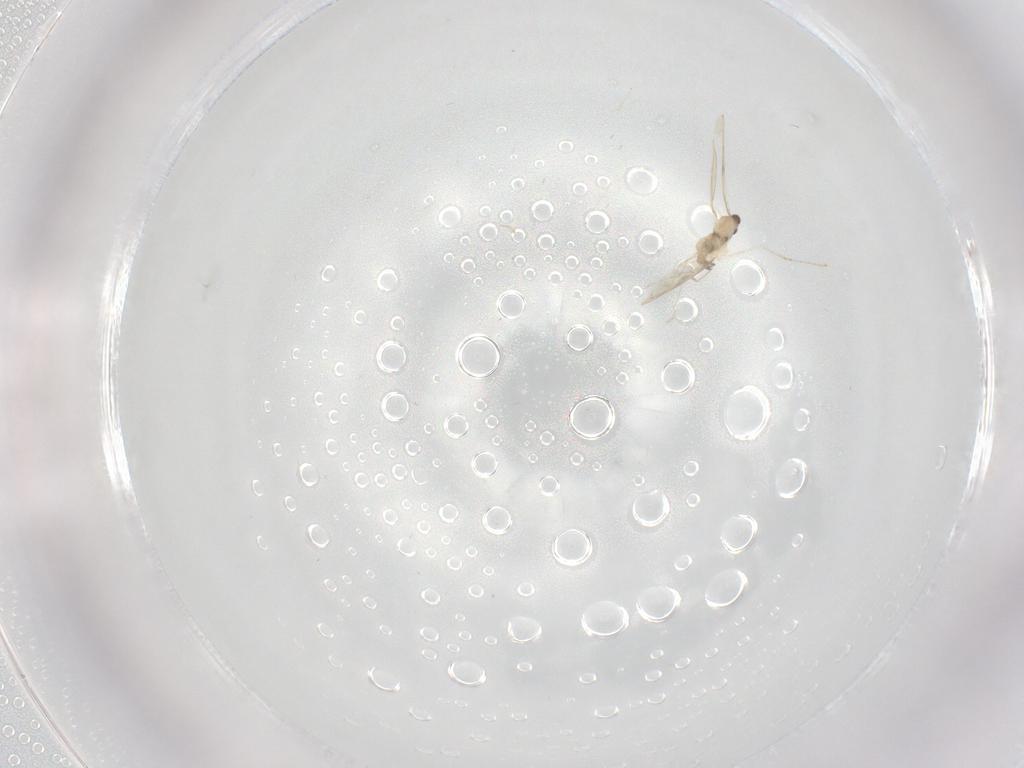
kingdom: Animalia
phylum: Arthropoda
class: Insecta
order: Diptera
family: Cecidomyiidae
